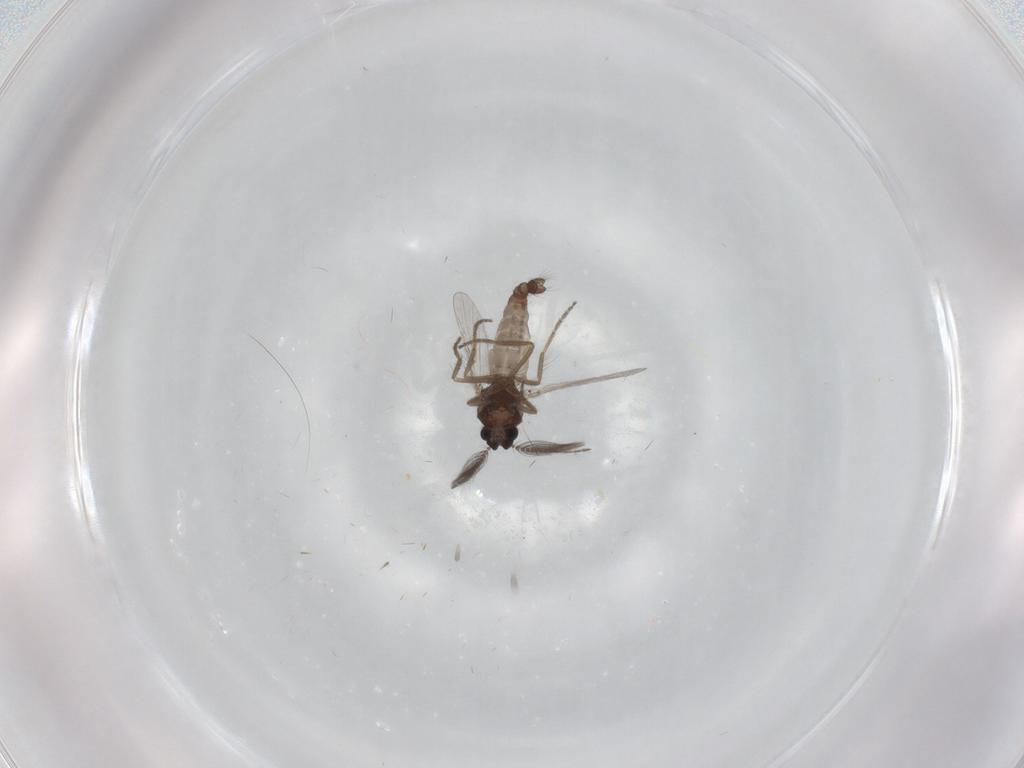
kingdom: Animalia
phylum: Arthropoda
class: Insecta
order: Diptera
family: Ceratopogonidae
